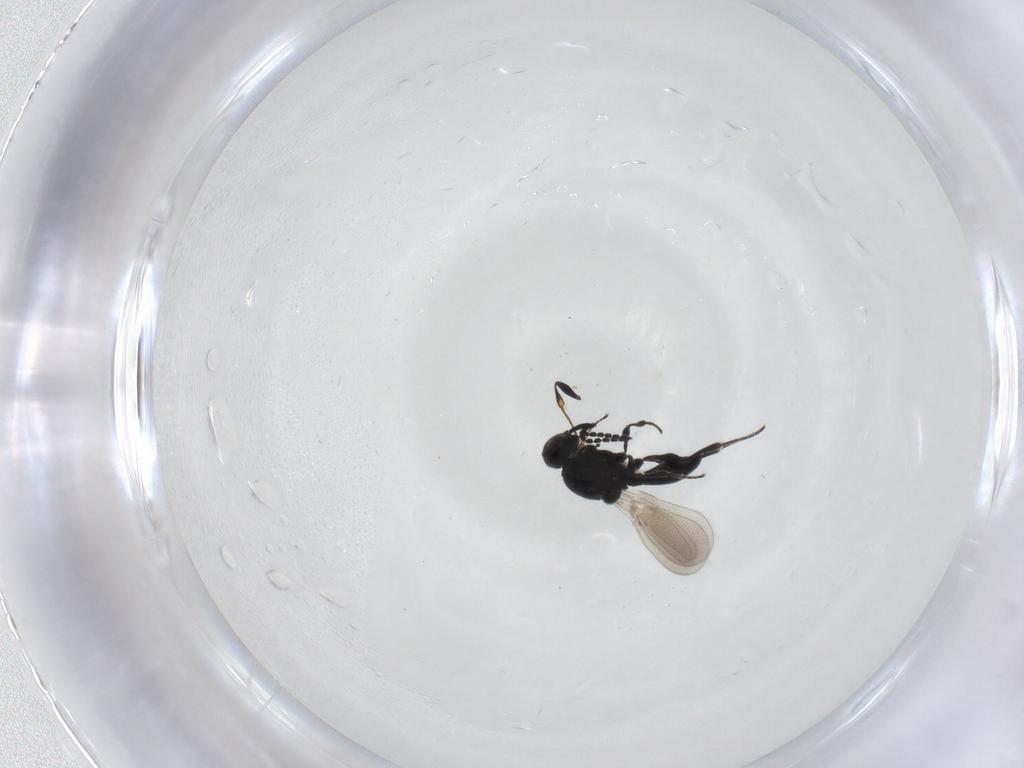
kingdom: Animalia
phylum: Arthropoda
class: Insecta
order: Hymenoptera
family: Platygastridae
